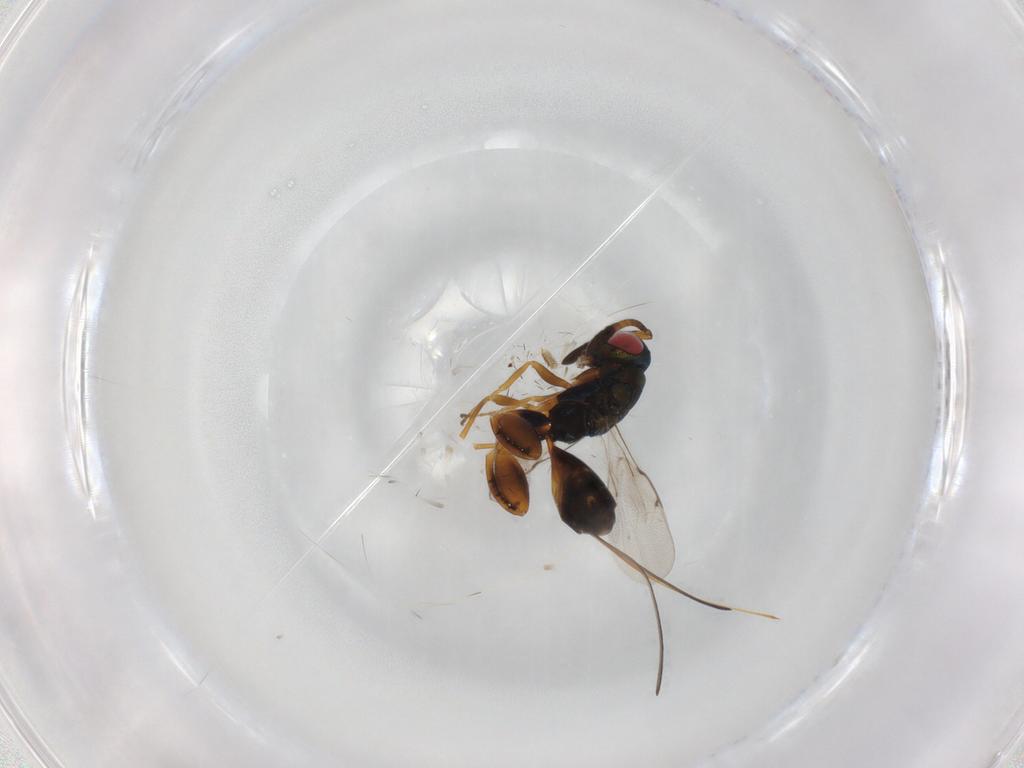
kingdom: Animalia
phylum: Arthropoda
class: Insecta
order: Hymenoptera
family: Torymidae
